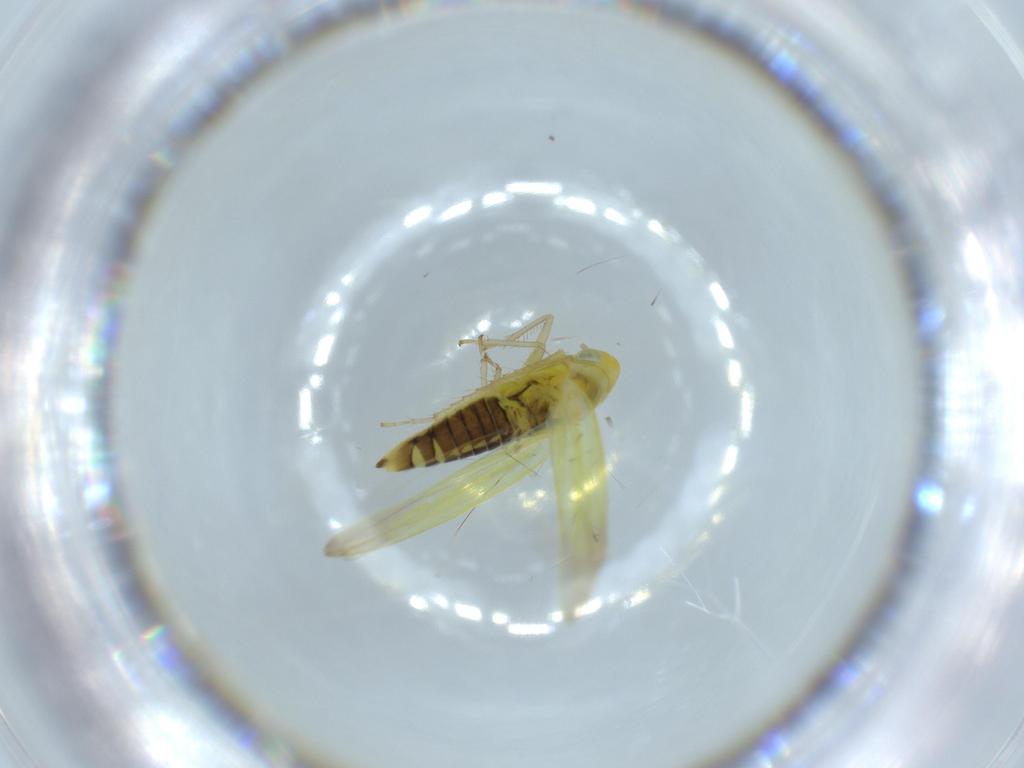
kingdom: Animalia
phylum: Arthropoda
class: Insecta
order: Hemiptera
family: Cicadellidae
